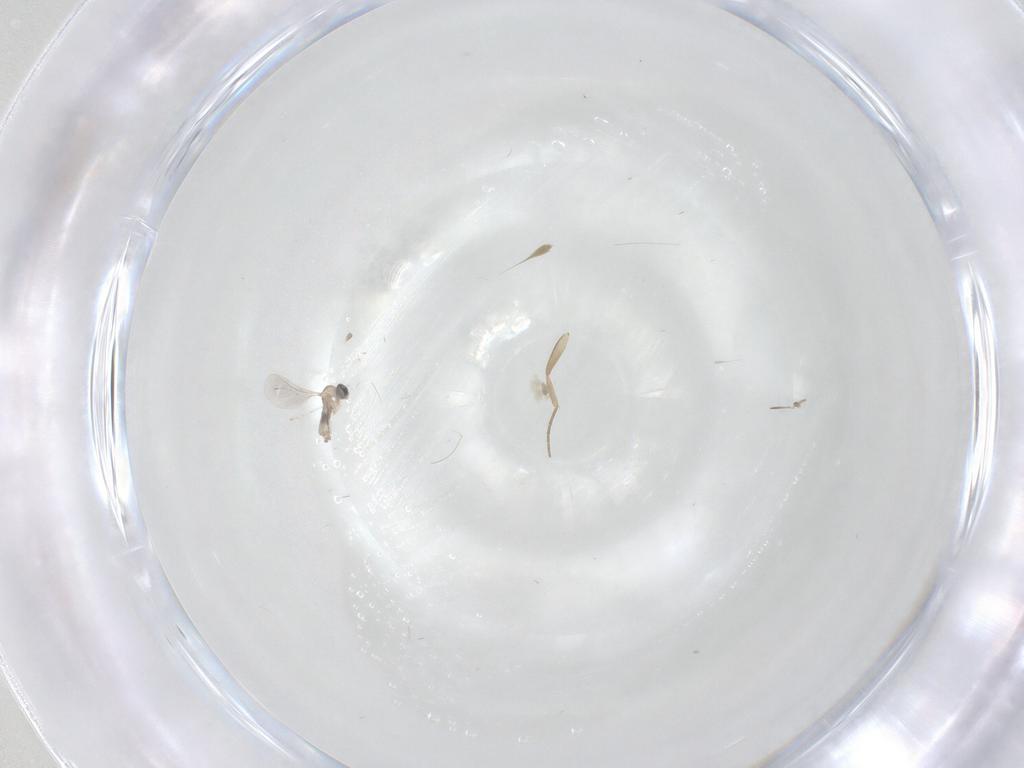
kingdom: Animalia
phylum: Arthropoda
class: Insecta
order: Diptera
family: Cecidomyiidae
